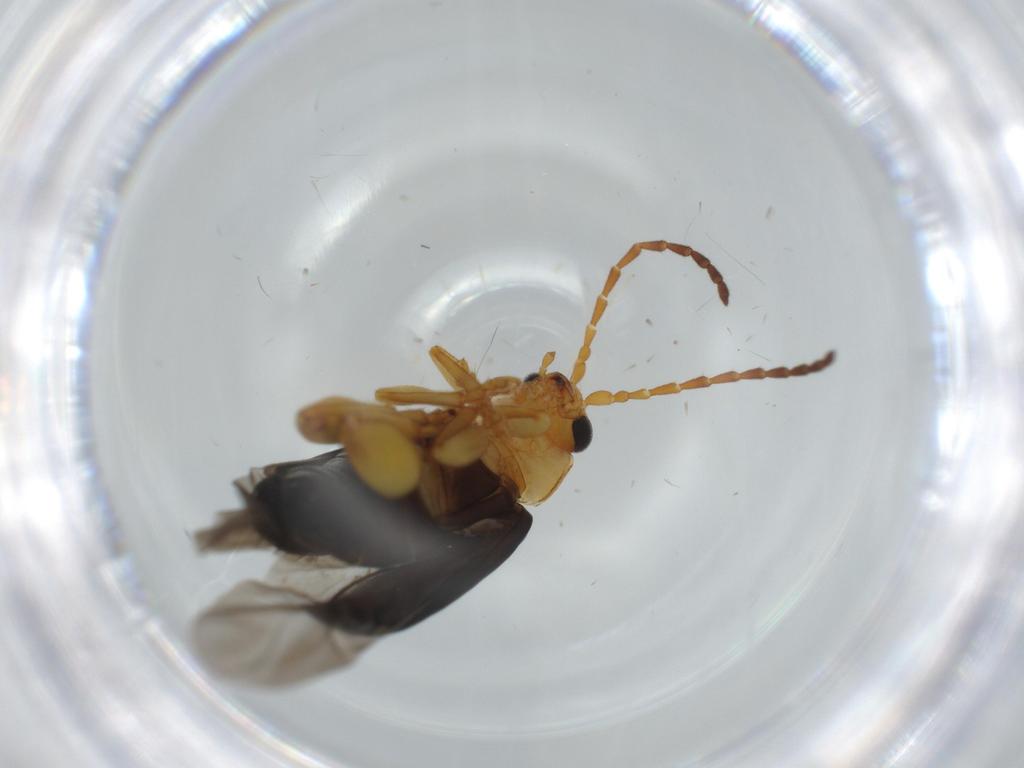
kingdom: Animalia
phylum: Arthropoda
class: Insecta
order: Coleoptera
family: Chrysomelidae
